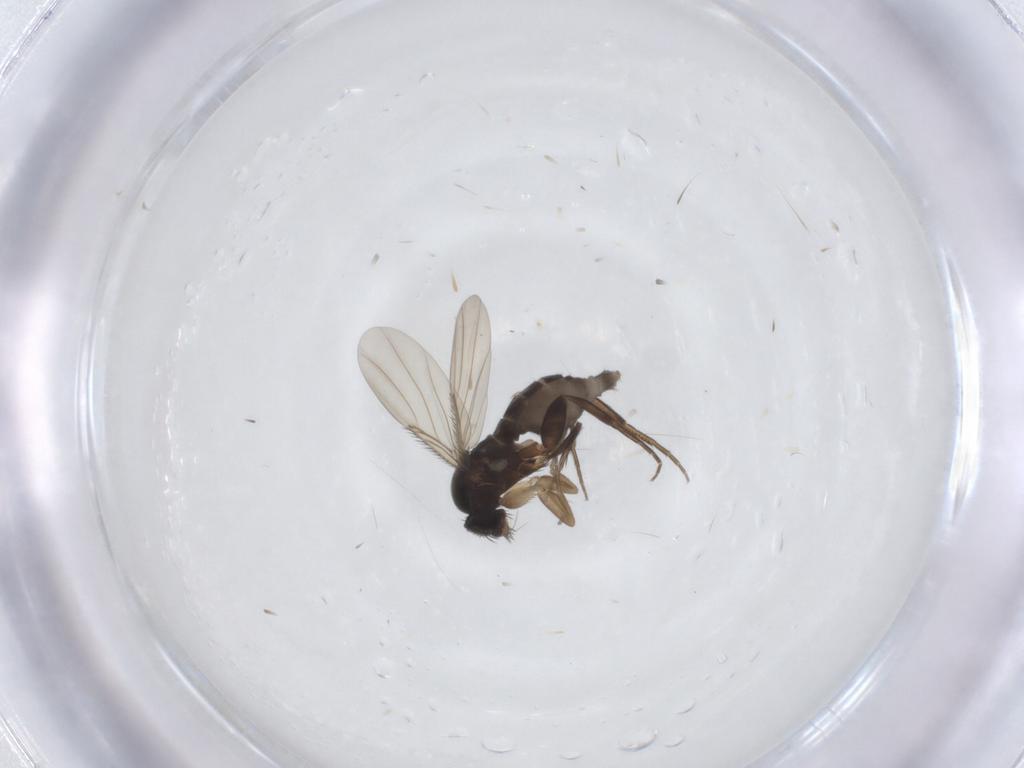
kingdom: Animalia
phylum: Arthropoda
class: Insecta
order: Diptera
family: Phoridae
